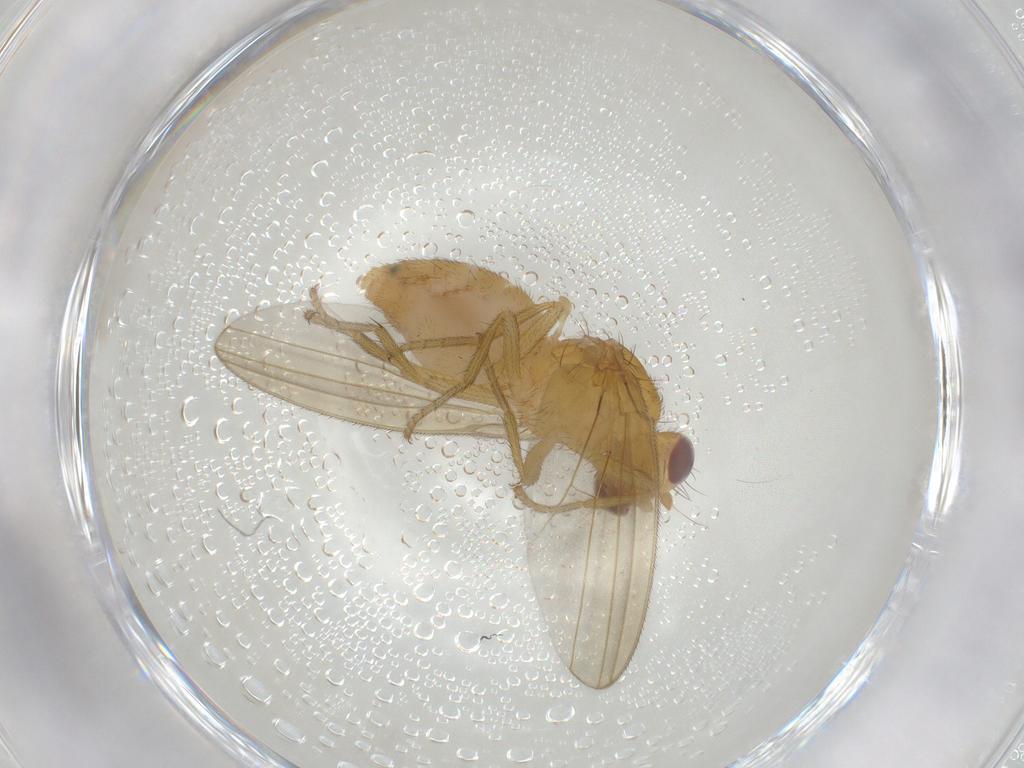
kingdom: Animalia
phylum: Arthropoda
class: Insecta
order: Diptera
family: Natalimyzidae
